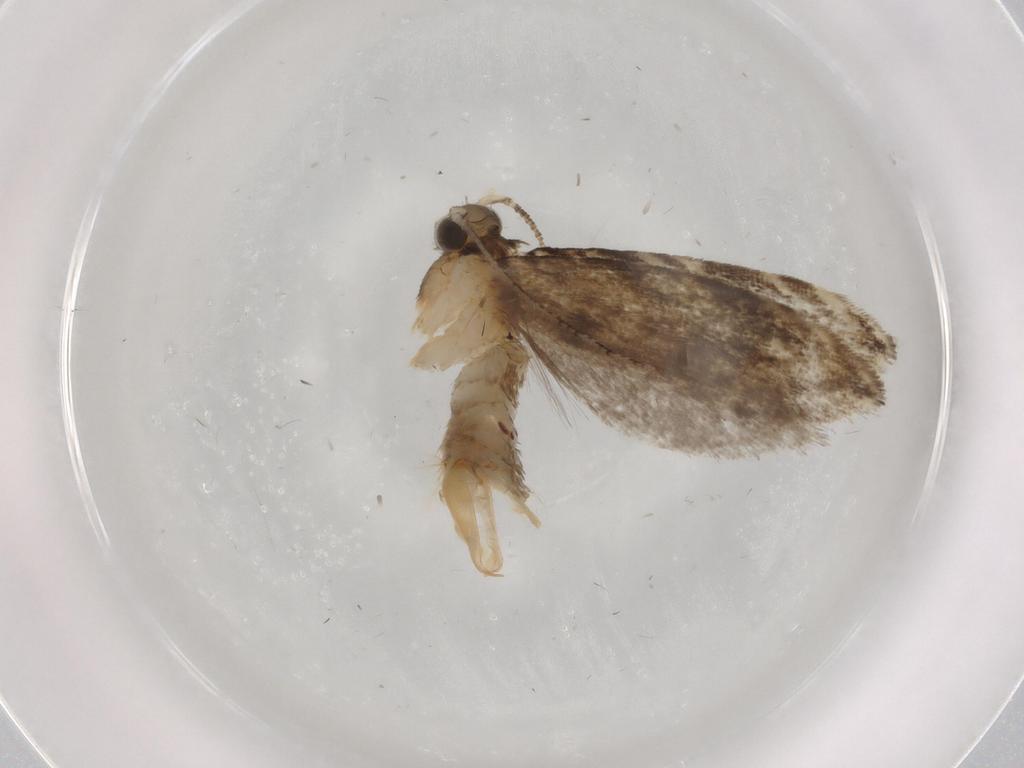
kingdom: Animalia
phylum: Arthropoda
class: Insecta
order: Lepidoptera
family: Tineidae
